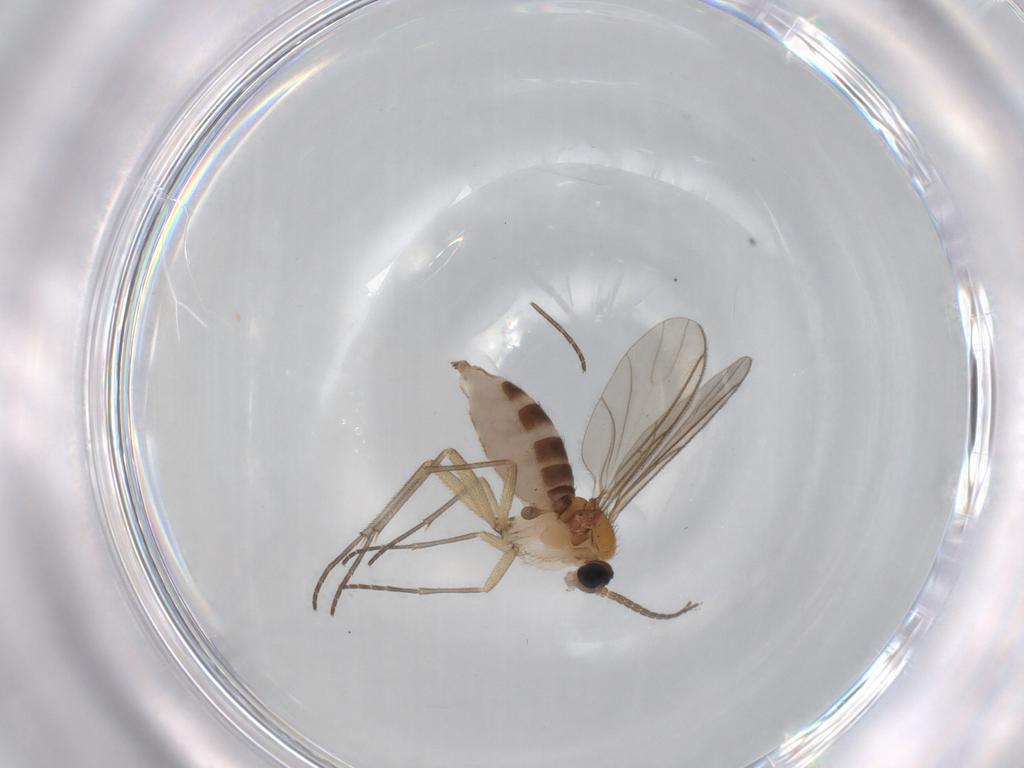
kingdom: Animalia
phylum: Arthropoda
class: Insecta
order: Diptera
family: Sciaridae
